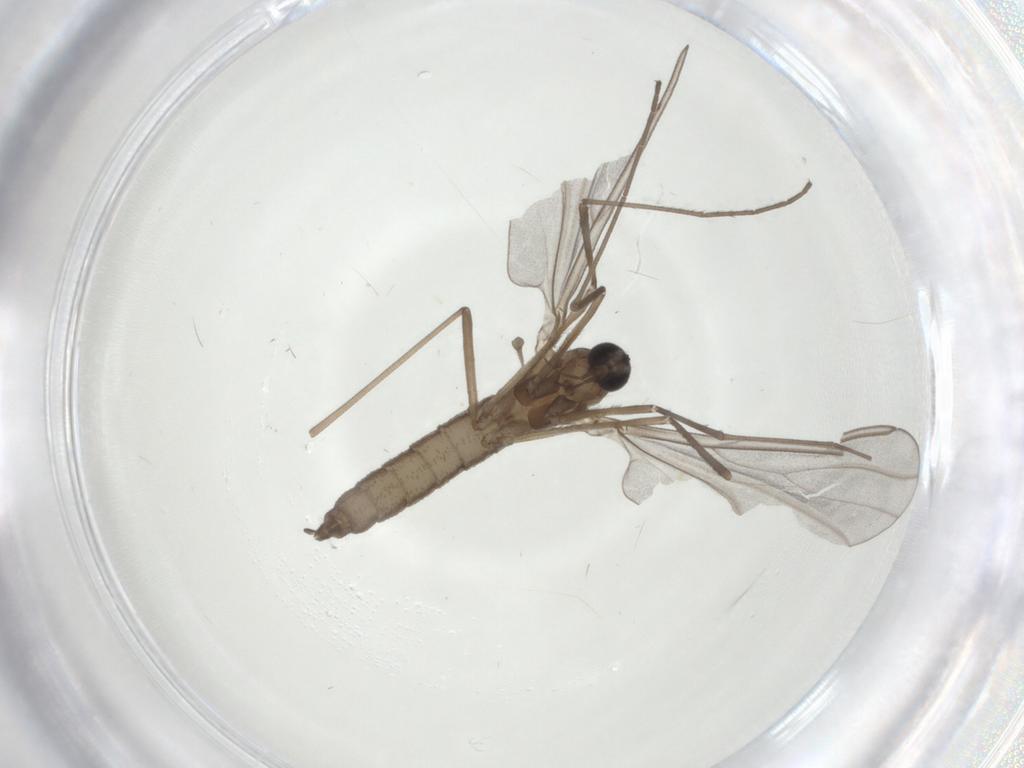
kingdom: Animalia
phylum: Arthropoda
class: Insecta
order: Diptera
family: Cecidomyiidae
